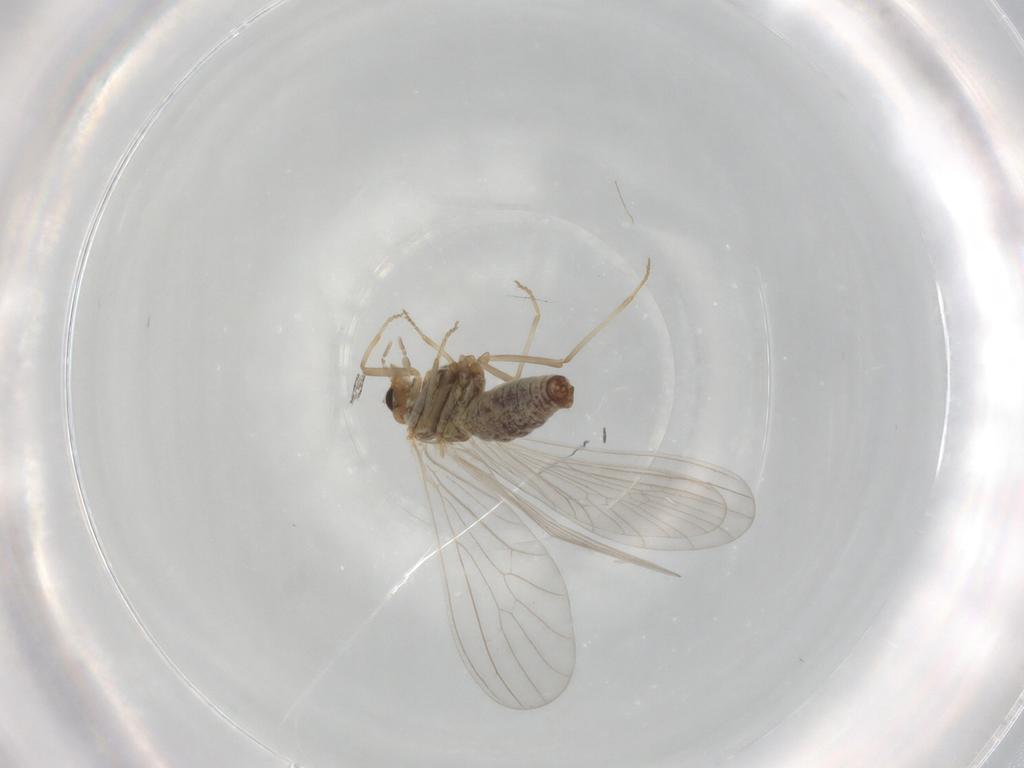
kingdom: Animalia
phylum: Arthropoda
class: Insecta
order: Neuroptera
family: Coniopterygidae
